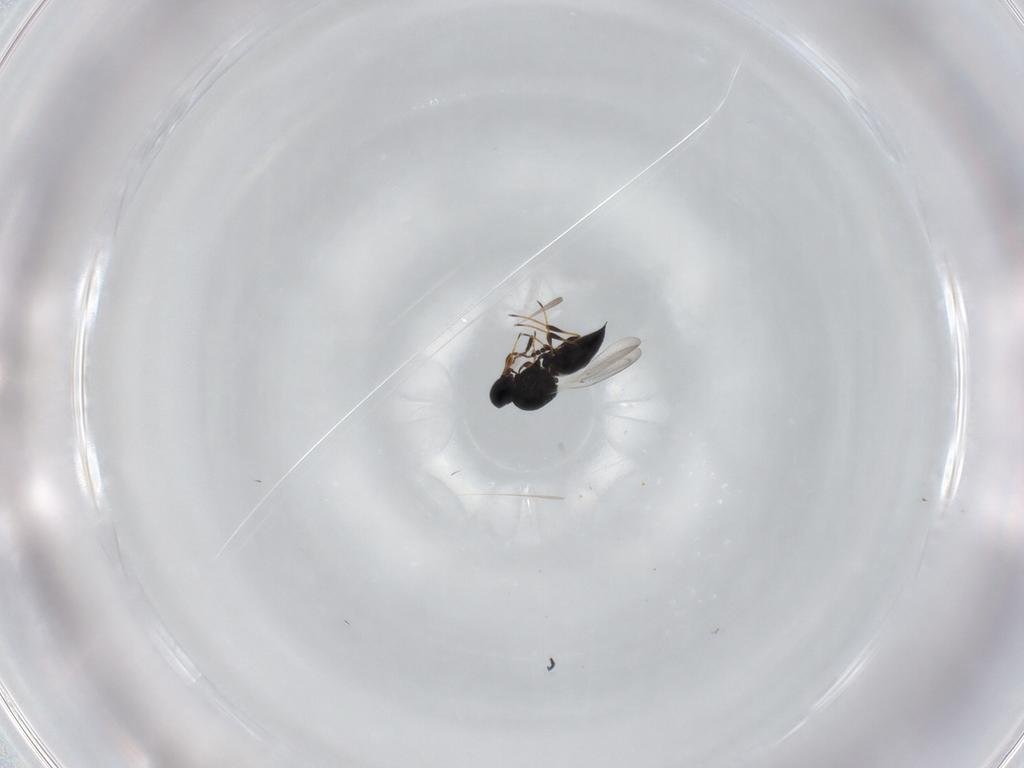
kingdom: Animalia
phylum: Arthropoda
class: Insecta
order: Hymenoptera
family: Platygastridae
